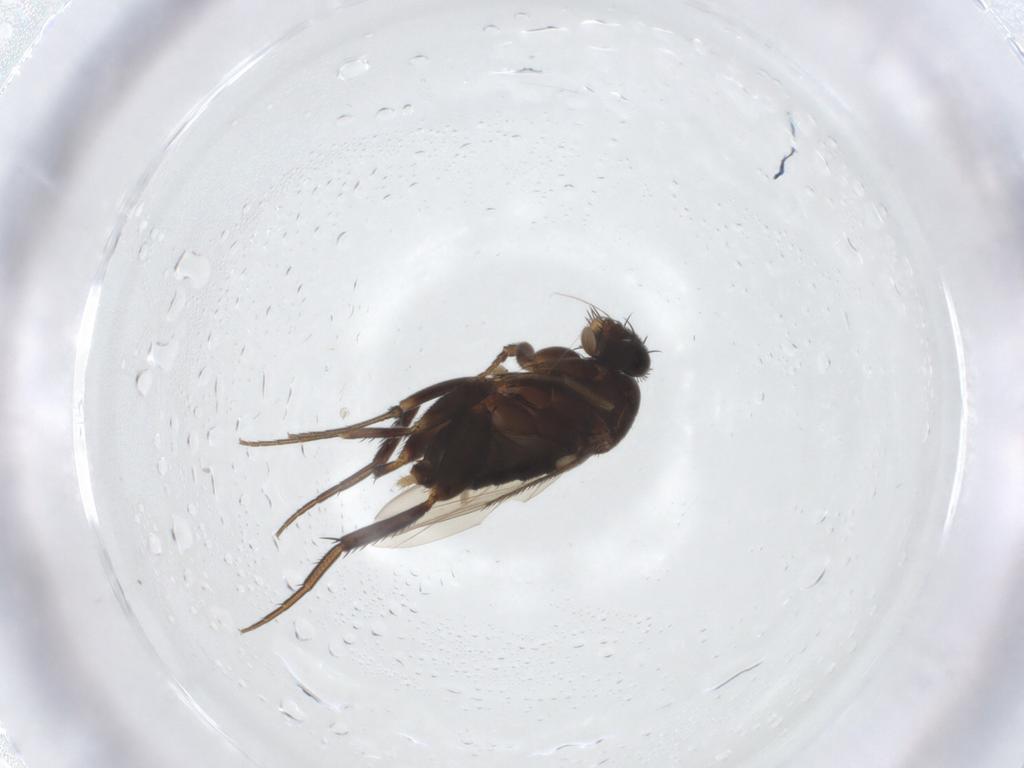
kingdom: Animalia
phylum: Arthropoda
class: Insecta
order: Diptera
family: Phoridae
